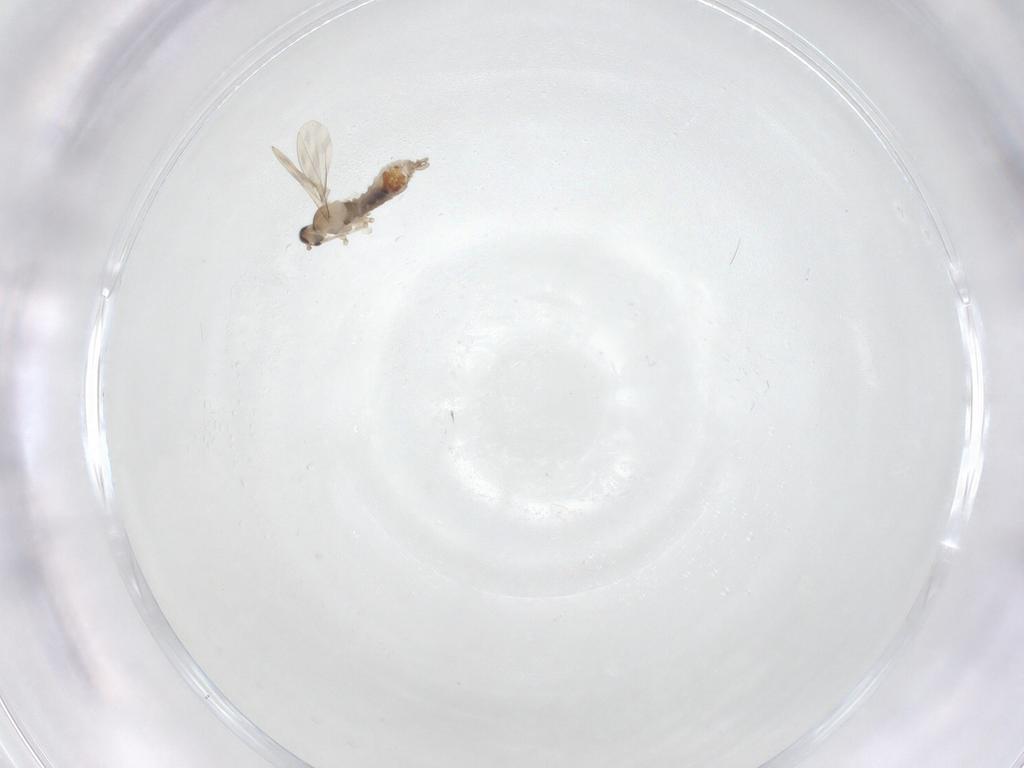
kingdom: Animalia
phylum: Arthropoda
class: Insecta
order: Diptera
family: Cecidomyiidae
